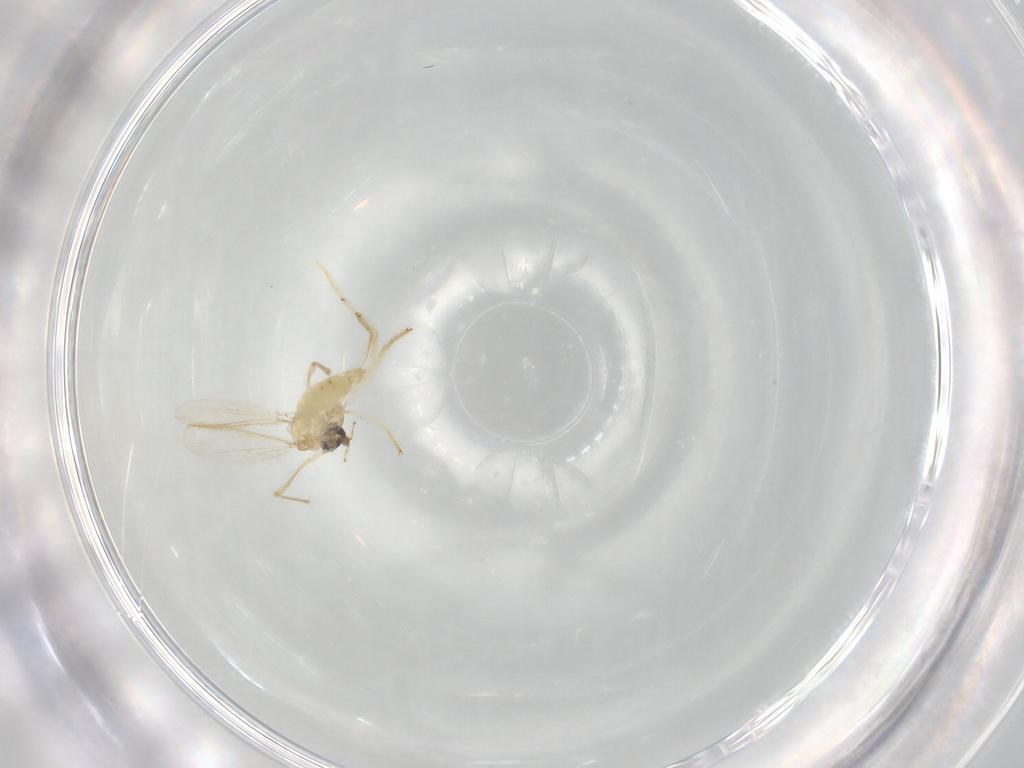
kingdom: Animalia
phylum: Arthropoda
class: Insecta
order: Diptera
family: Chironomidae
